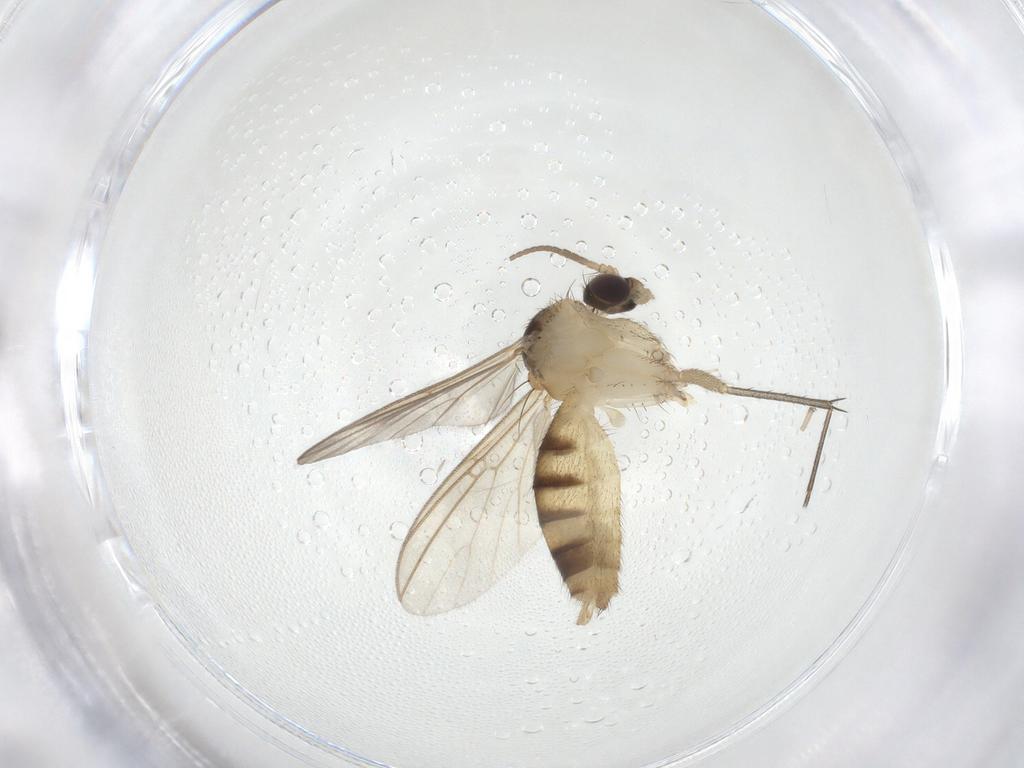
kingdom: Animalia
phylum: Arthropoda
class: Insecta
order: Diptera
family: Mycetophilidae
